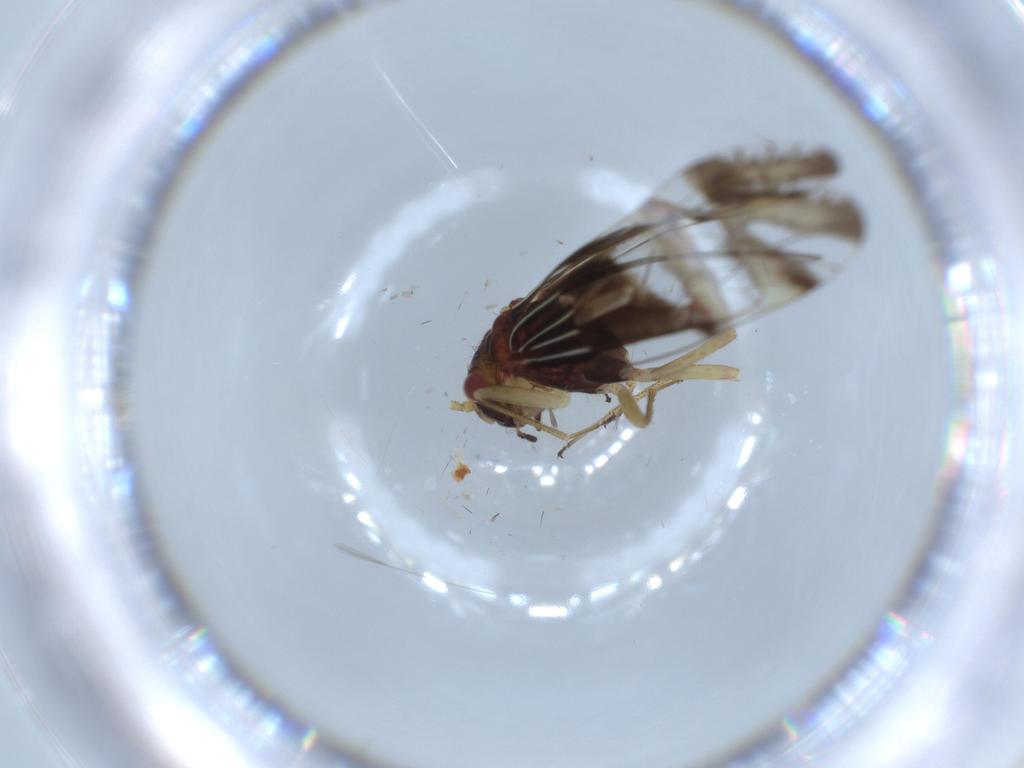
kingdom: Animalia
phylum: Arthropoda
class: Insecta
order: Psocodea
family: Elipsocidae
